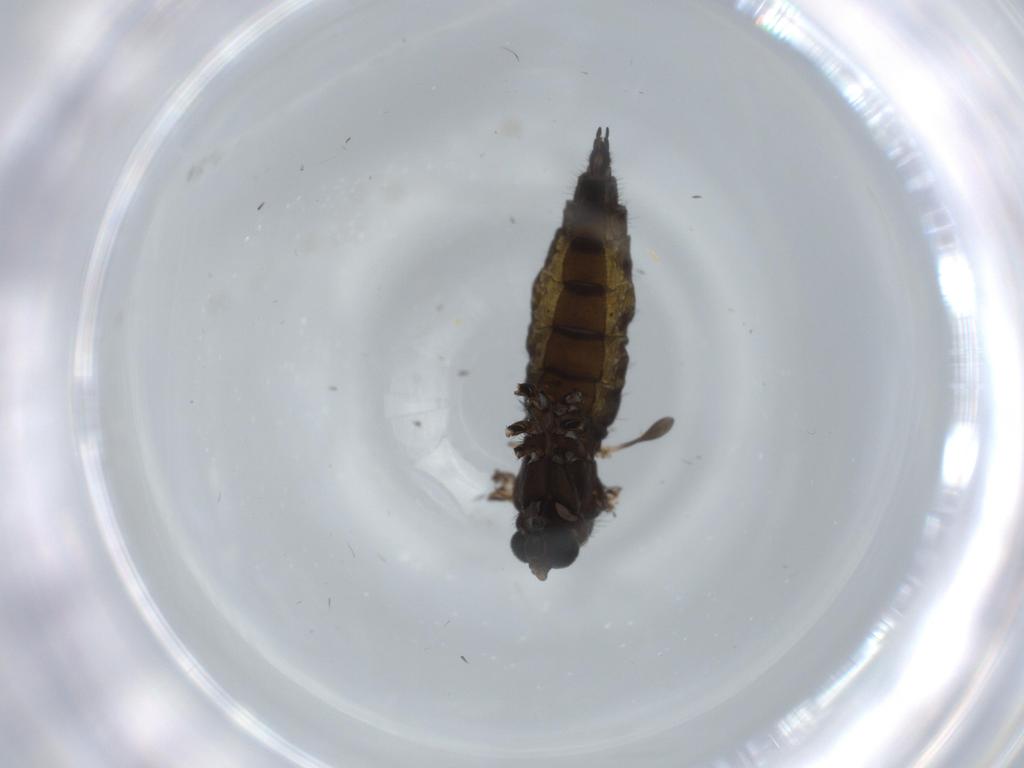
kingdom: Animalia
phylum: Arthropoda
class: Insecta
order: Diptera
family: Sciaridae
